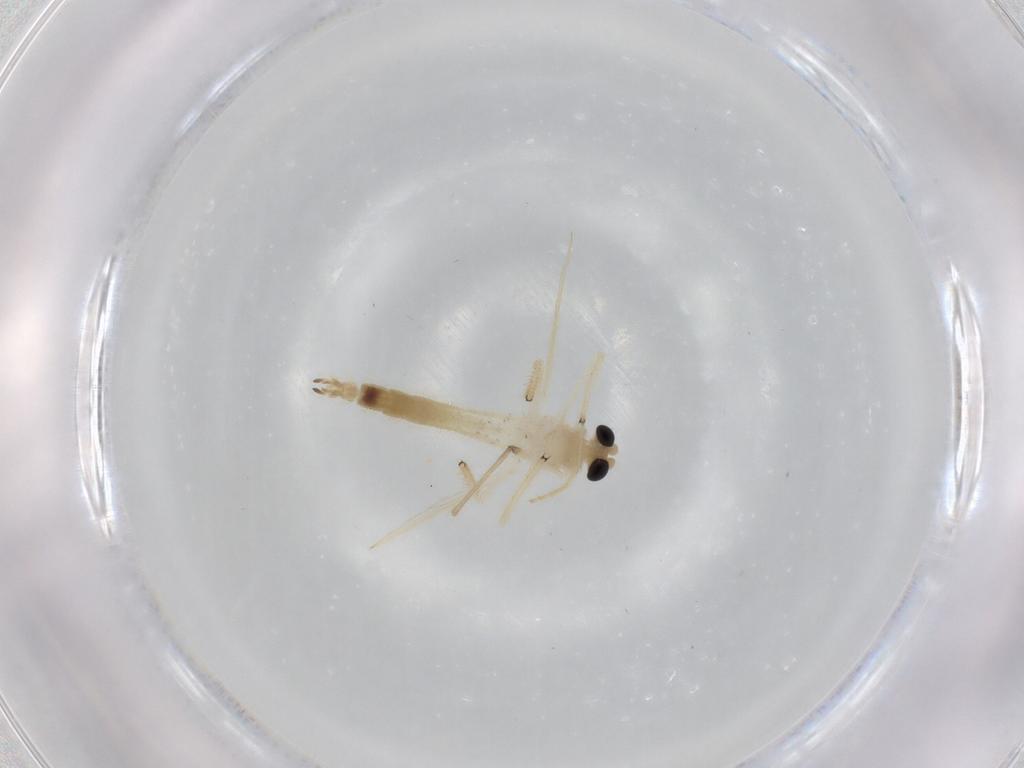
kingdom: Animalia
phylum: Arthropoda
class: Insecta
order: Diptera
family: Chironomidae
